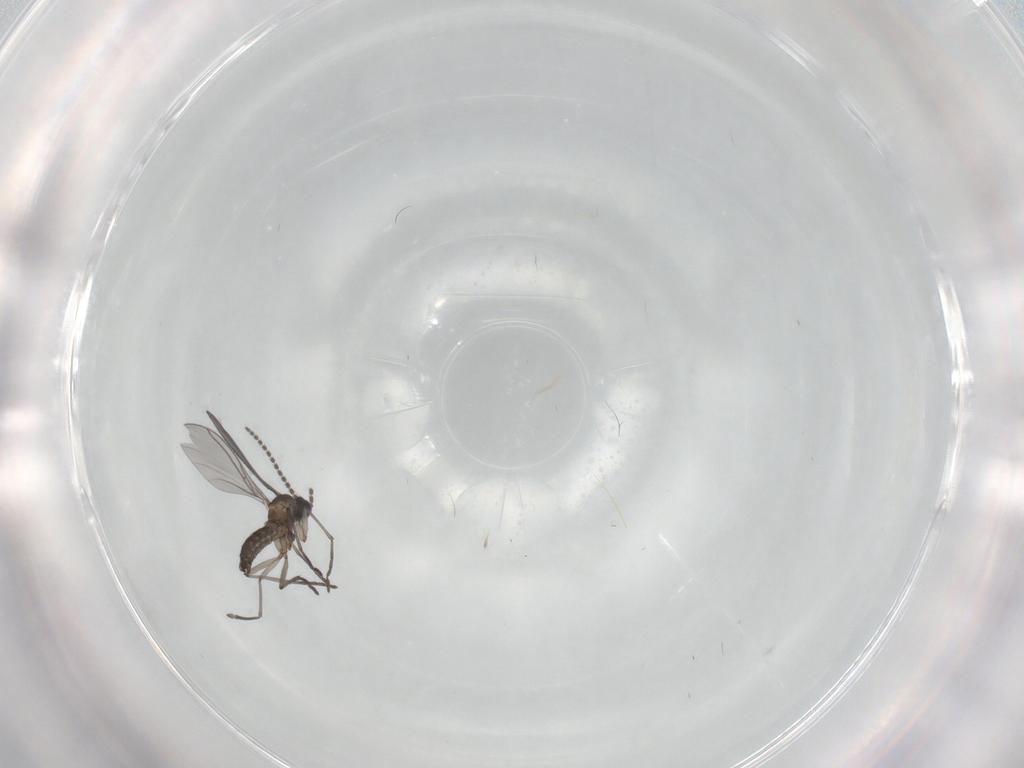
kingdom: Animalia
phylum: Arthropoda
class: Insecta
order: Diptera
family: Sciaridae
